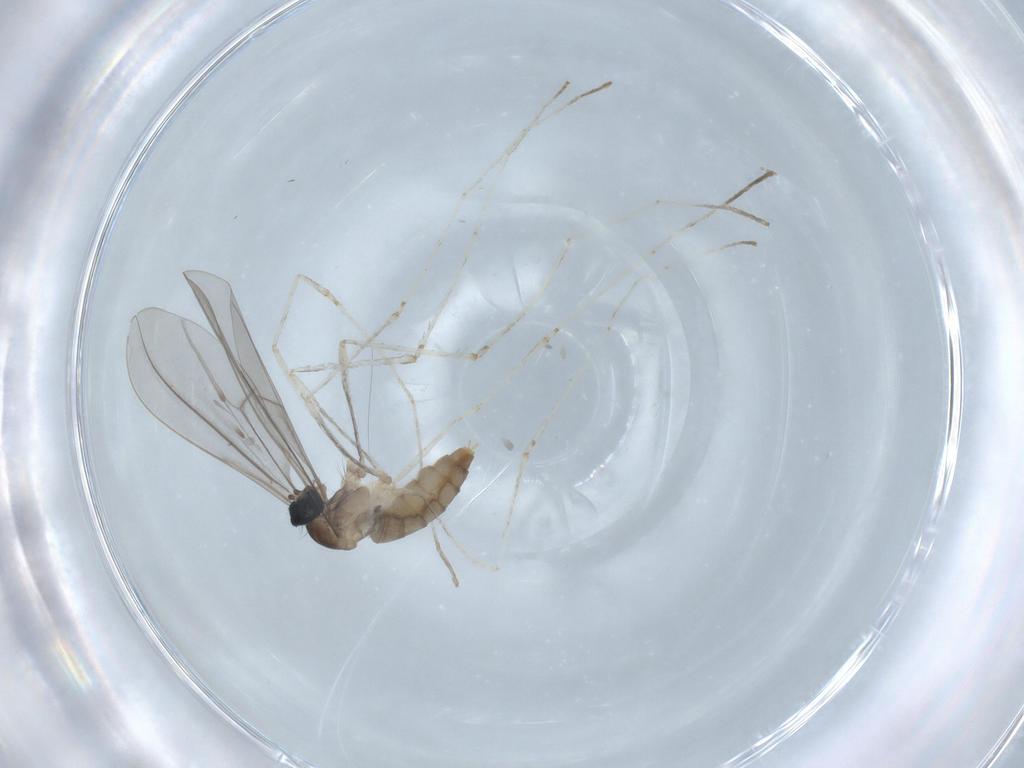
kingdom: Animalia
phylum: Arthropoda
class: Insecta
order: Diptera
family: Cecidomyiidae
